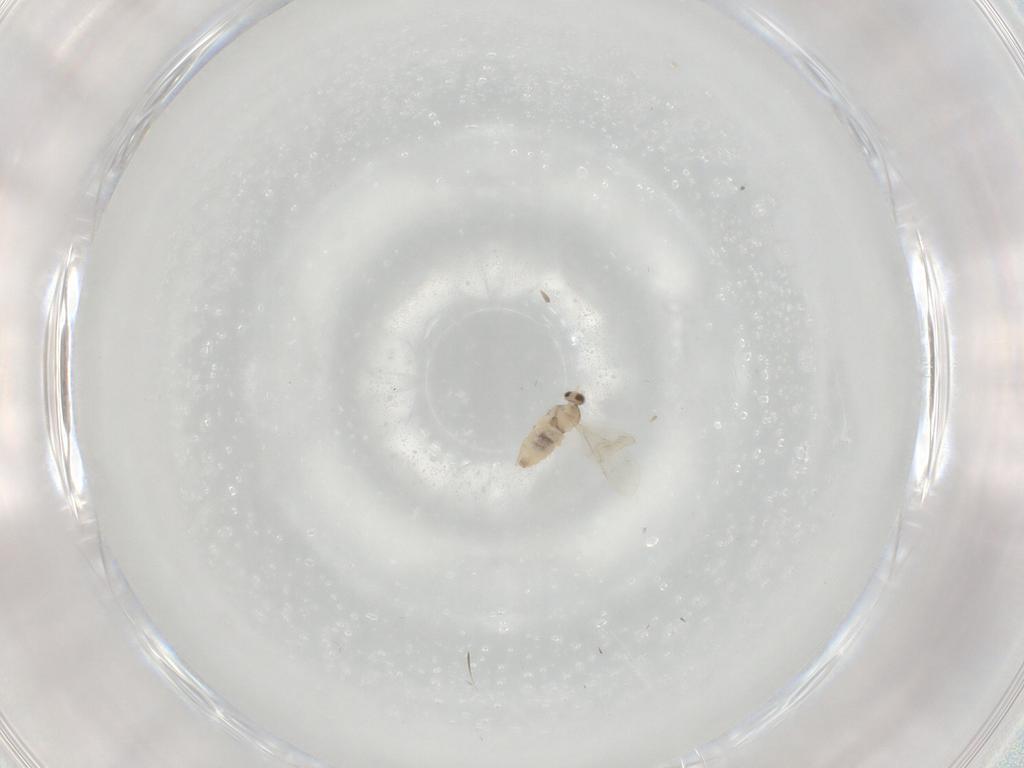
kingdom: Animalia
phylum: Arthropoda
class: Insecta
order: Diptera
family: Cecidomyiidae
